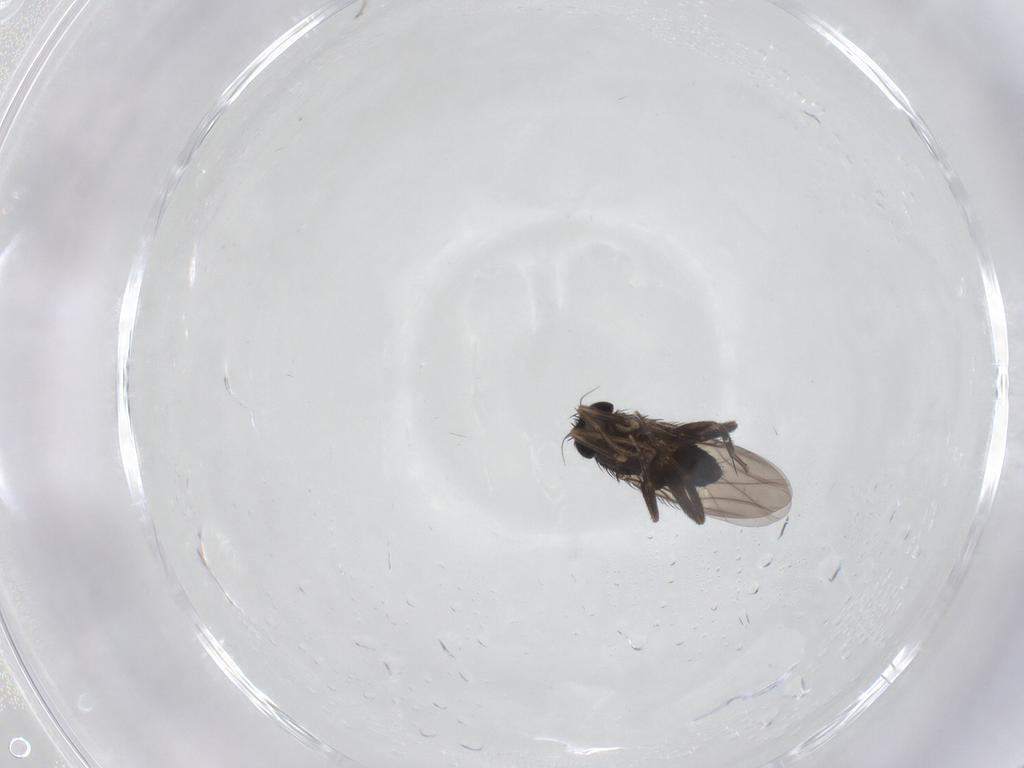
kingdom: Animalia
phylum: Arthropoda
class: Insecta
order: Diptera
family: Phoridae
